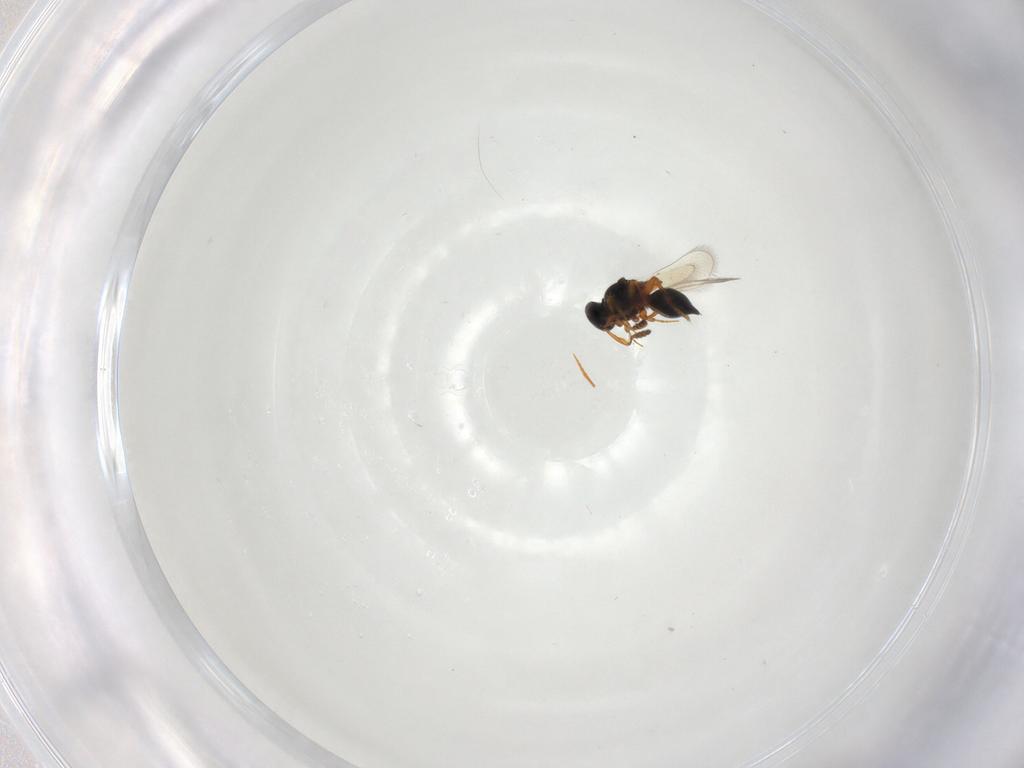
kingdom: Animalia
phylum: Arthropoda
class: Insecta
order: Hymenoptera
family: Platygastridae
